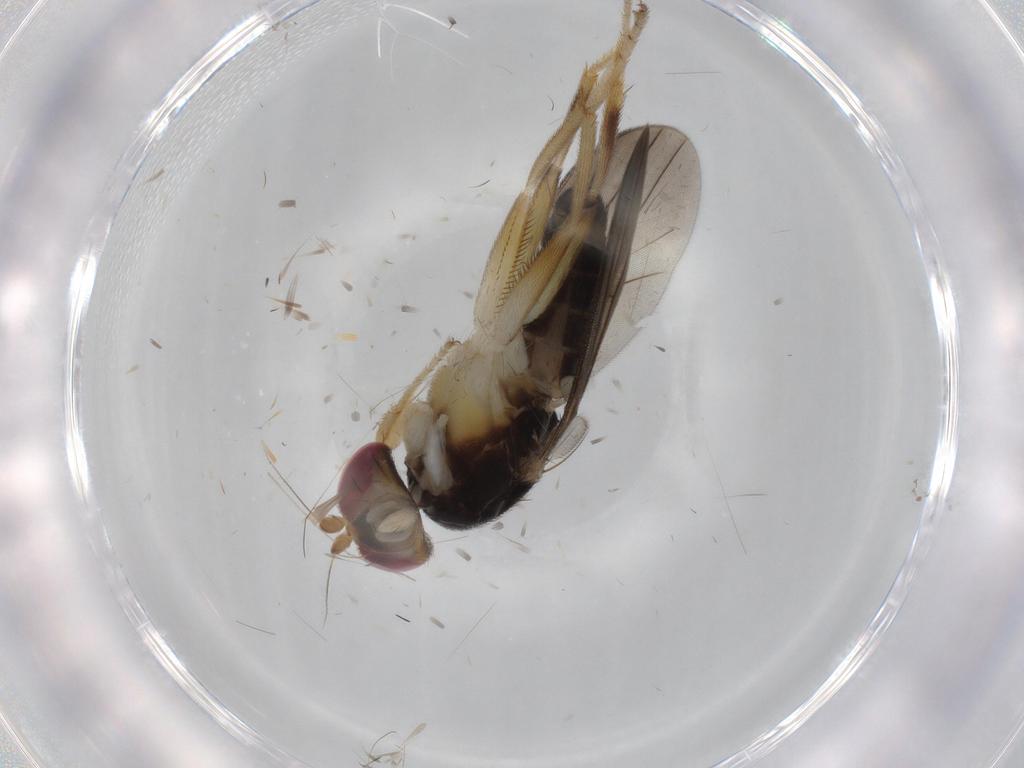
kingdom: Animalia
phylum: Arthropoda
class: Insecta
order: Diptera
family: Clusiidae
